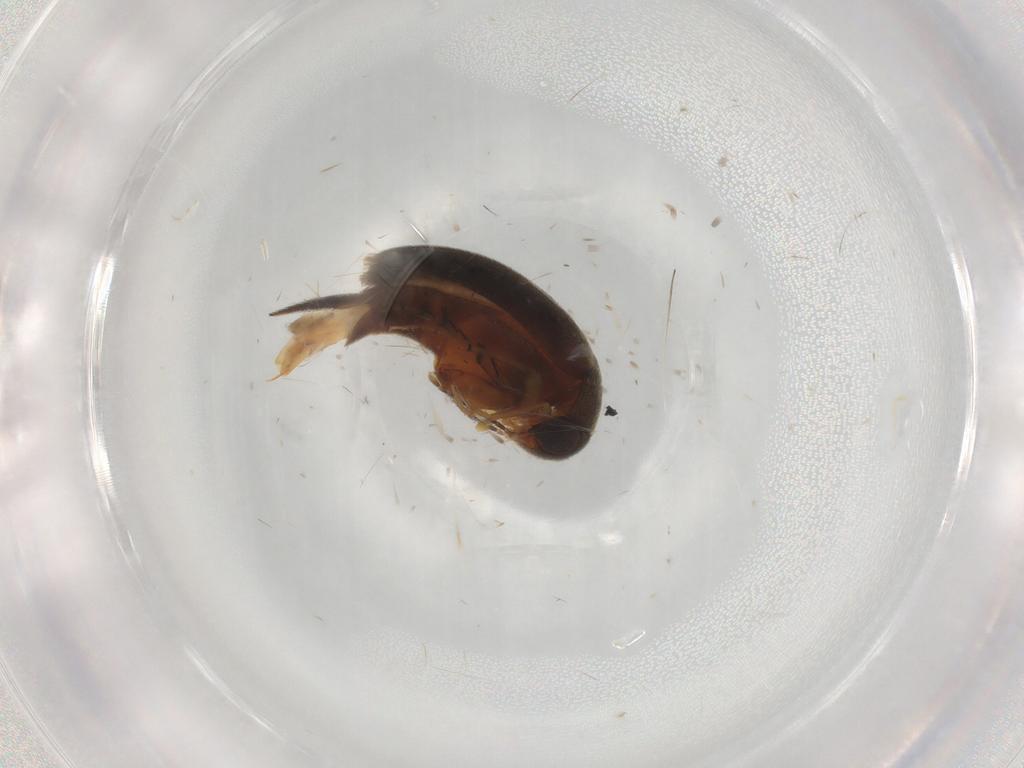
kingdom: Animalia
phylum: Arthropoda
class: Insecta
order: Coleoptera
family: Mordellidae
